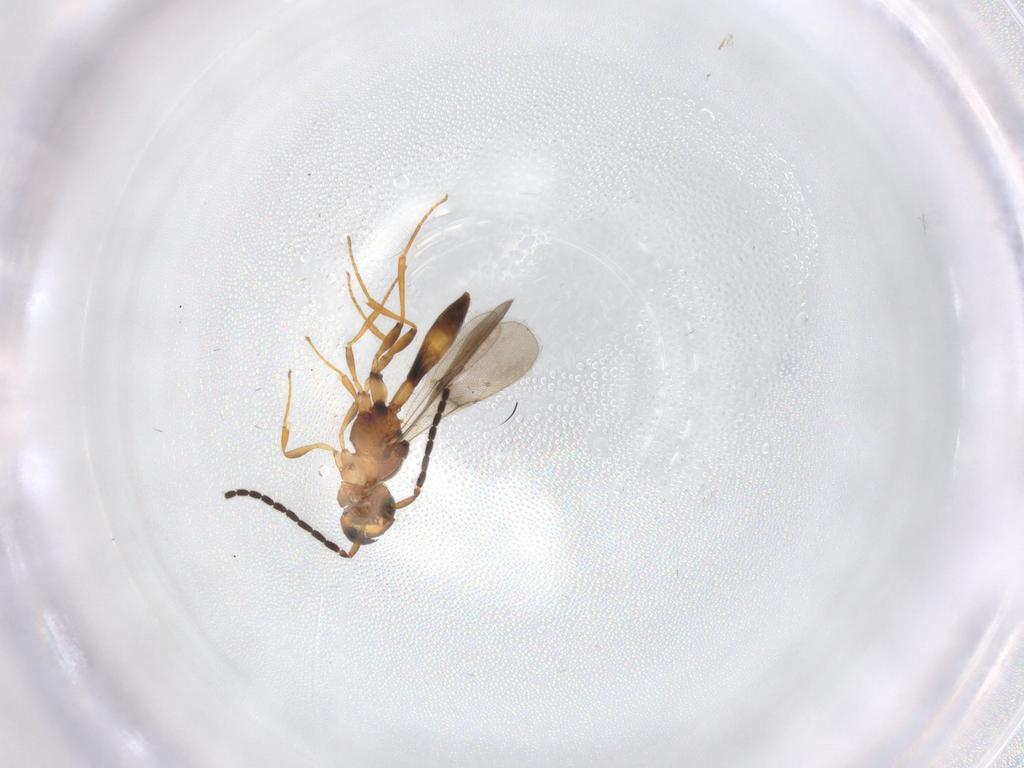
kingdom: Animalia
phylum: Arthropoda
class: Insecta
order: Hymenoptera
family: Scelionidae
